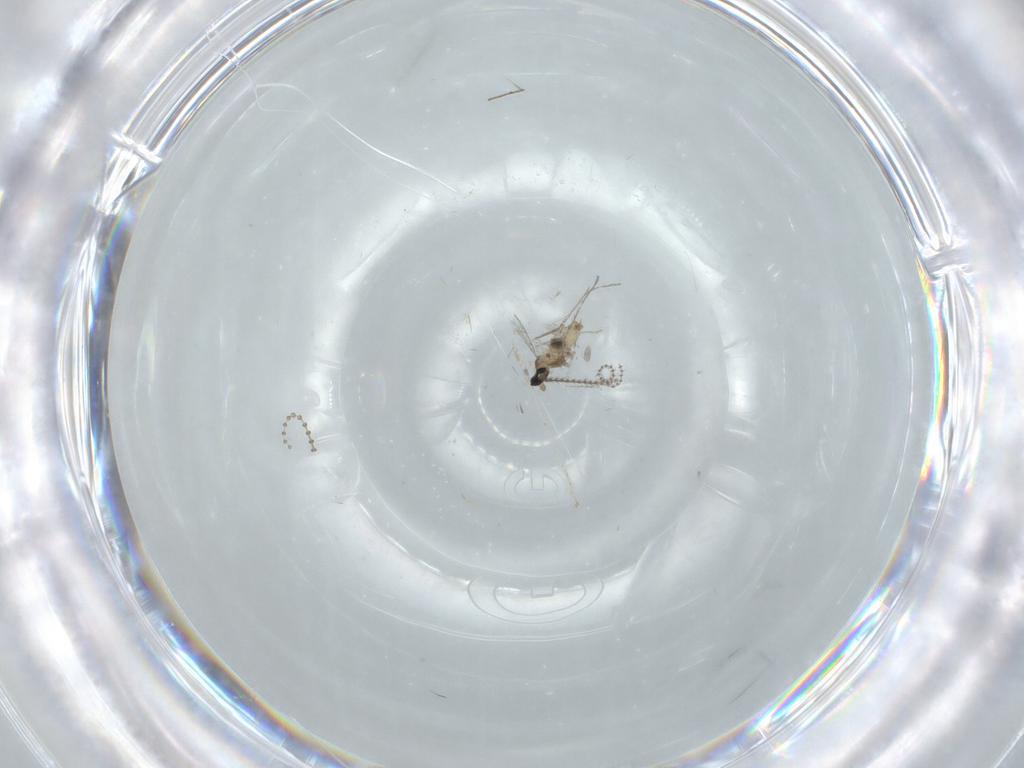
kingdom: Animalia
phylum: Arthropoda
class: Insecta
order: Diptera
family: Cecidomyiidae
